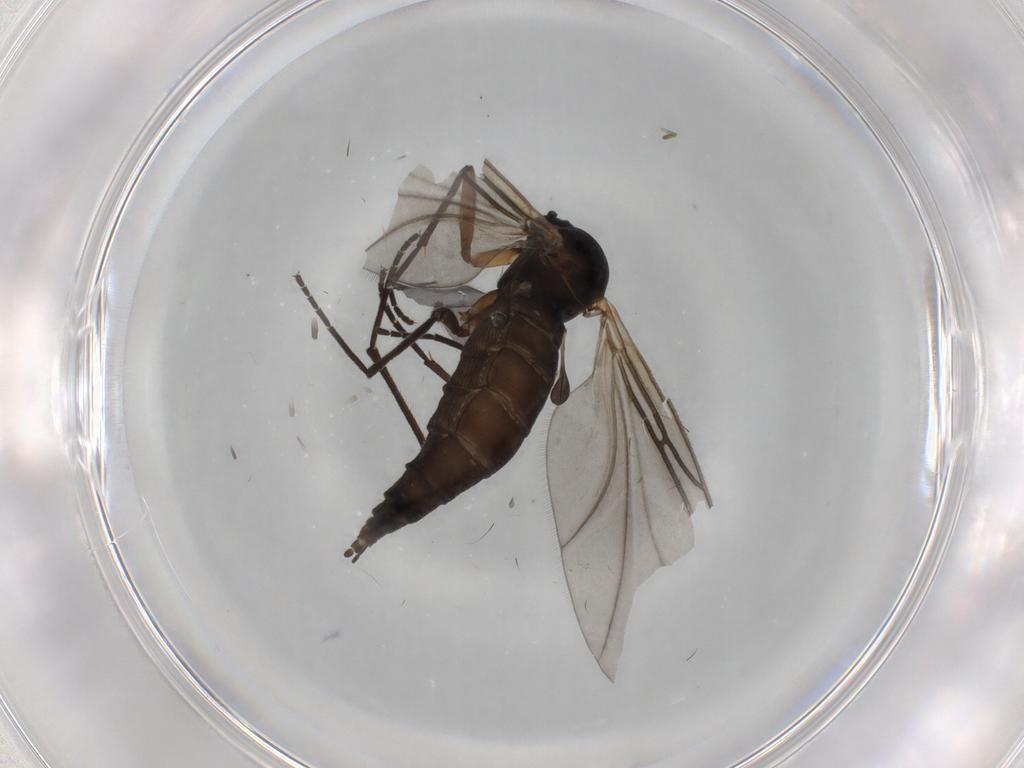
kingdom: Animalia
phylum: Arthropoda
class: Insecta
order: Diptera
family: Sciaridae
